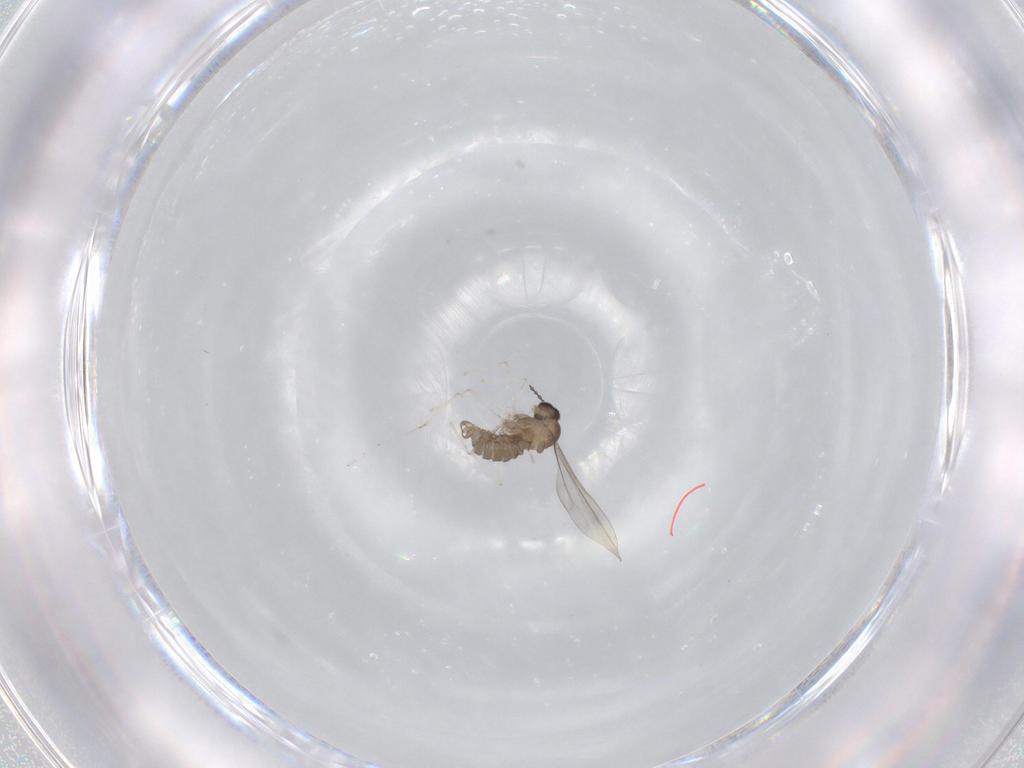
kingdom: Animalia
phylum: Arthropoda
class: Insecta
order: Diptera
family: Cecidomyiidae
